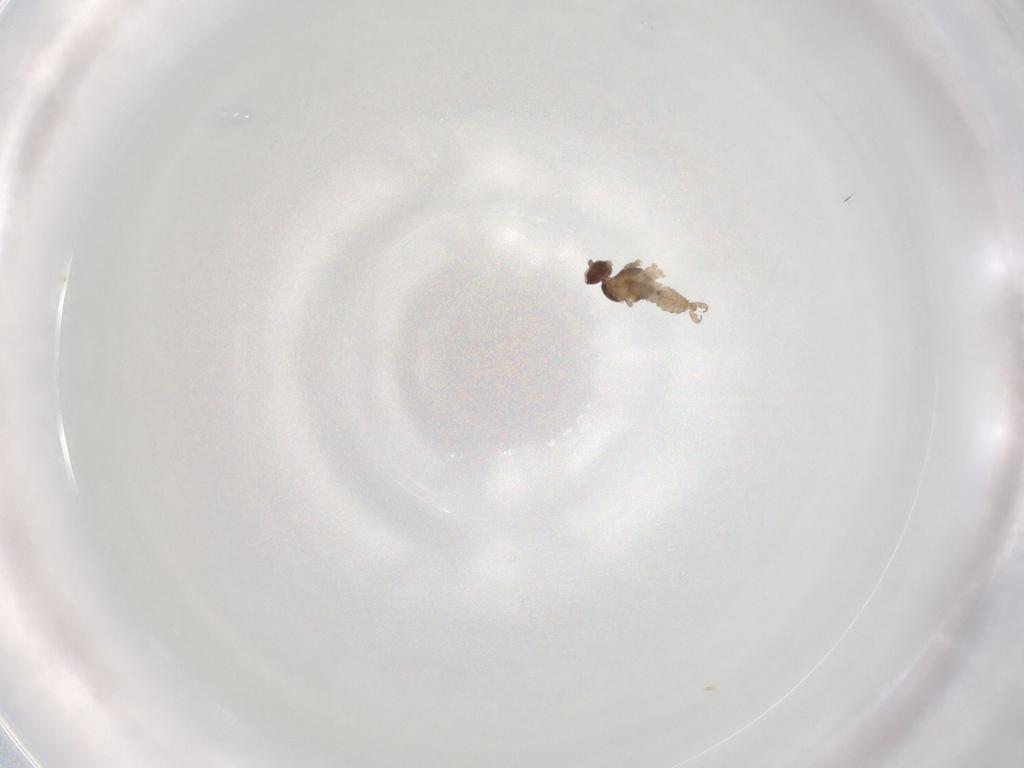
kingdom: Animalia
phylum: Arthropoda
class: Insecta
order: Diptera
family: Cecidomyiidae
